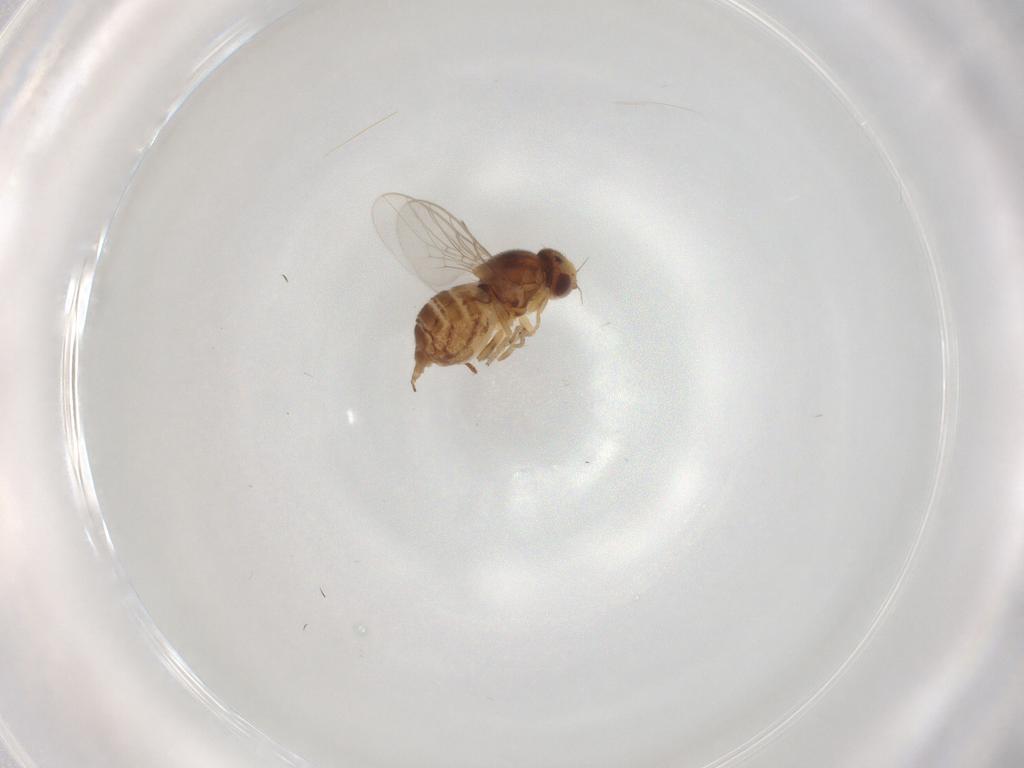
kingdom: Animalia
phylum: Arthropoda
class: Insecta
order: Diptera
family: Chloropidae
